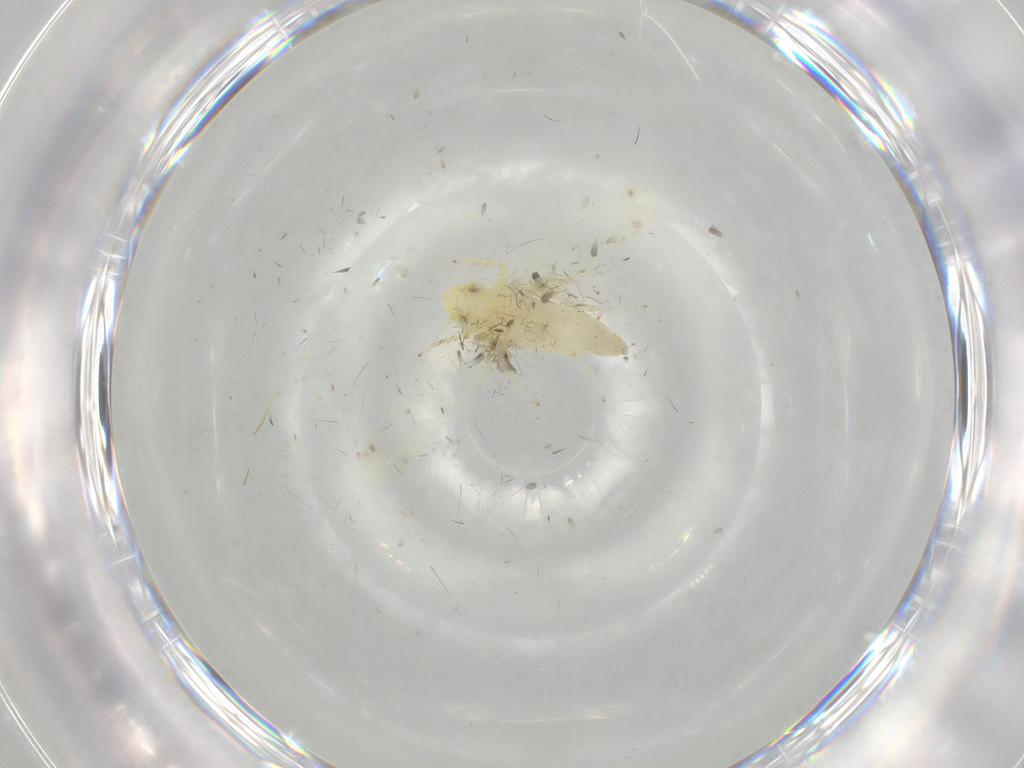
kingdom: Animalia
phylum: Arthropoda
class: Insecta
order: Hemiptera
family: Cicadellidae
